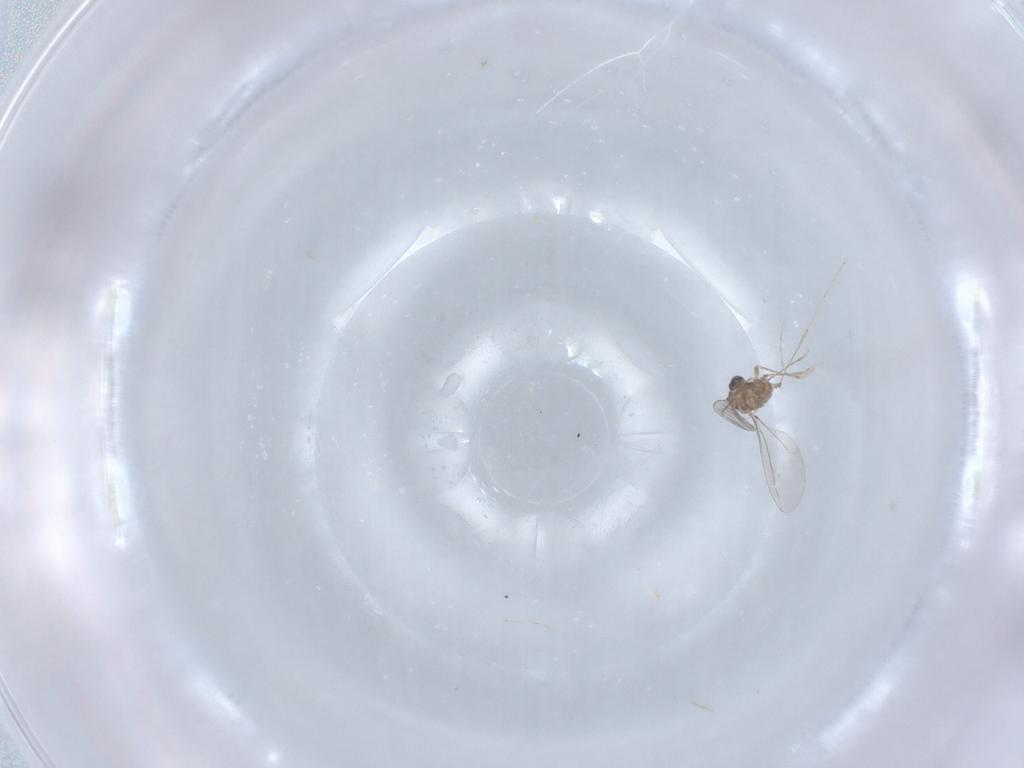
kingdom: Animalia
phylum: Arthropoda
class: Insecta
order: Diptera
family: Cecidomyiidae
